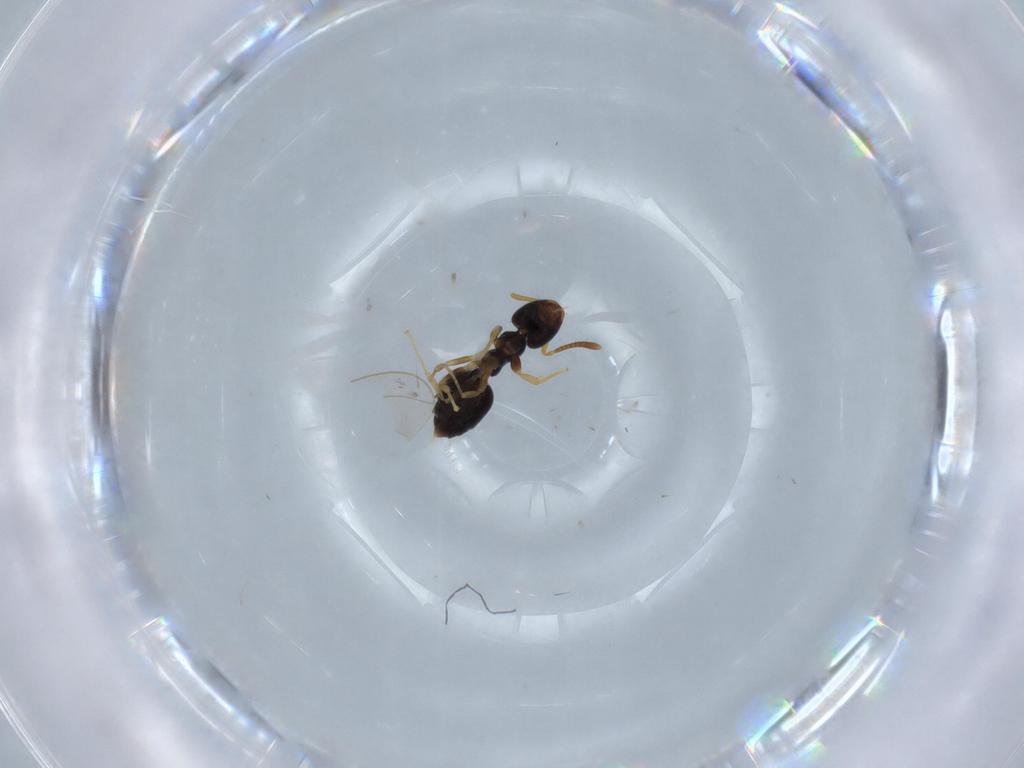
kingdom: Animalia
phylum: Arthropoda
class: Insecta
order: Hymenoptera
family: Formicidae
